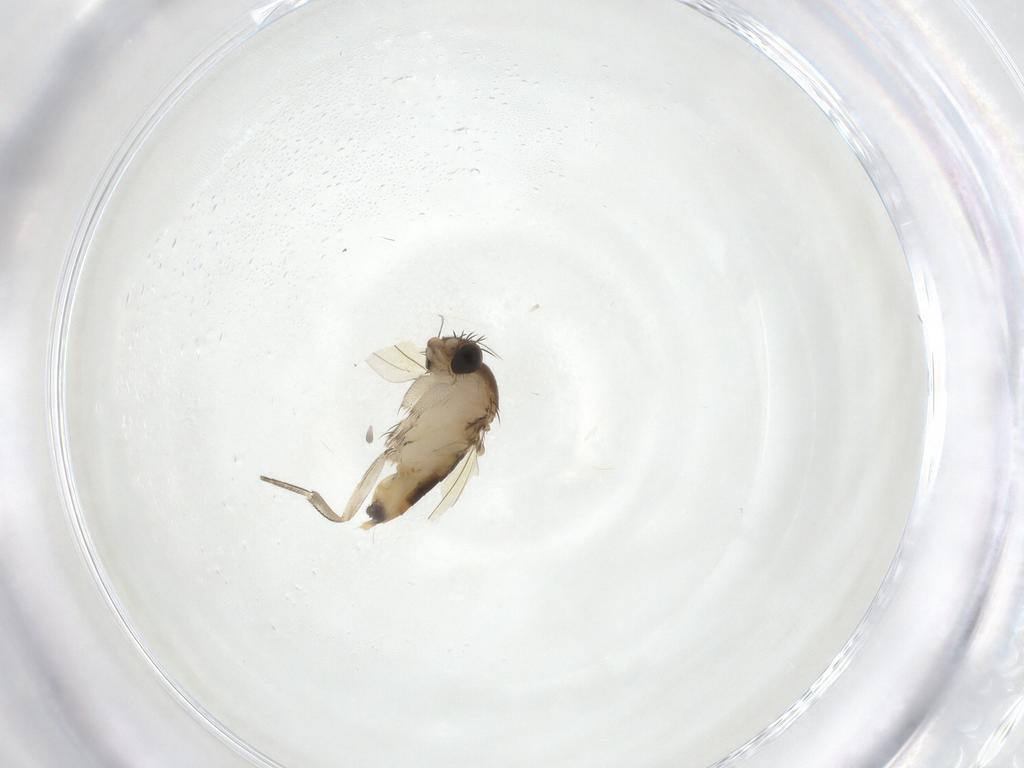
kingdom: Animalia
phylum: Arthropoda
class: Insecta
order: Diptera
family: Phoridae
